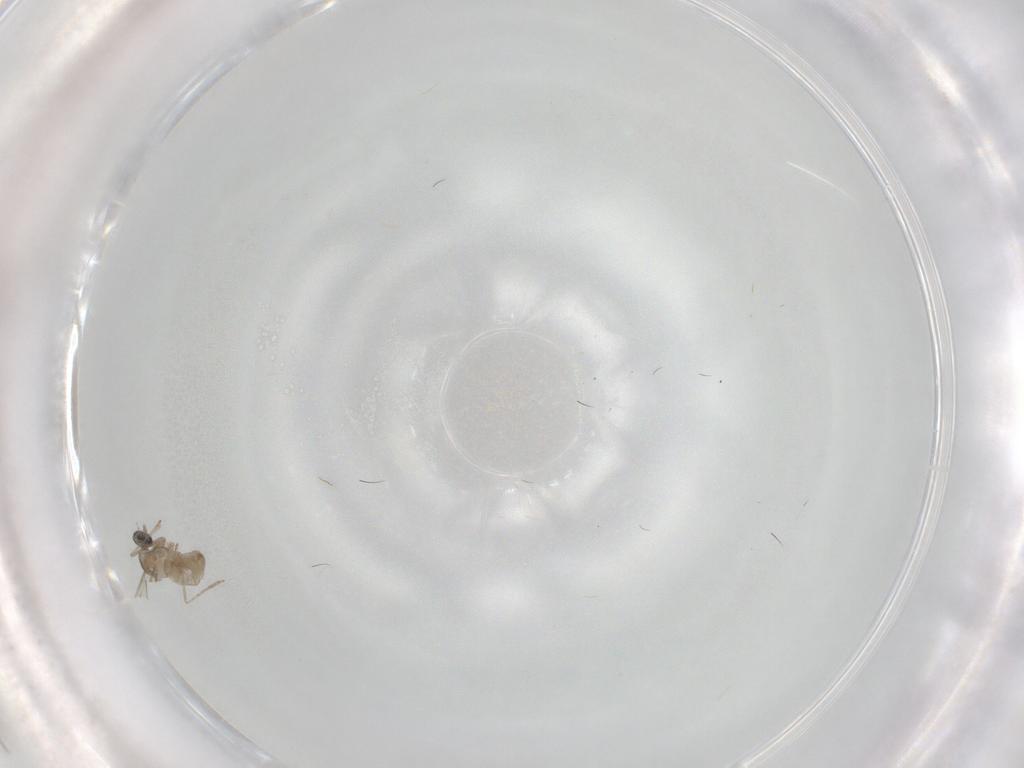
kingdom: Animalia
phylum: Arthropoda
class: Insecta
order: Diptera
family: Cecidomyiidae
